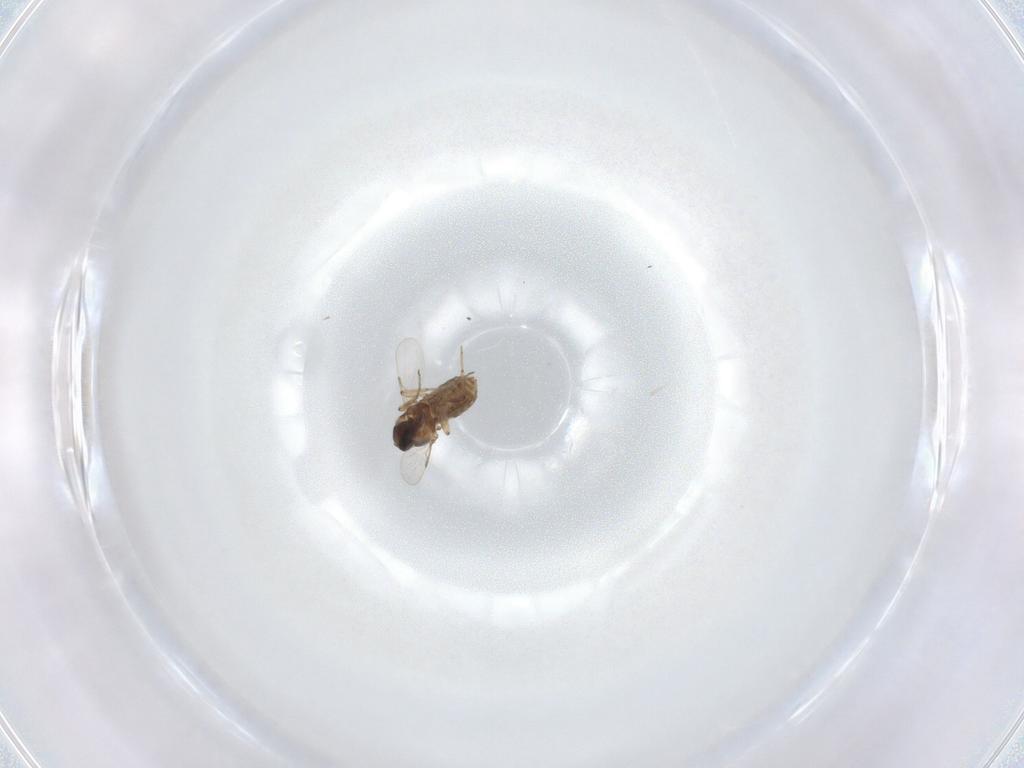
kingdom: Animalia
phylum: Arthropoda
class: Insecta
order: Diptera
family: Ceratopogonidae
